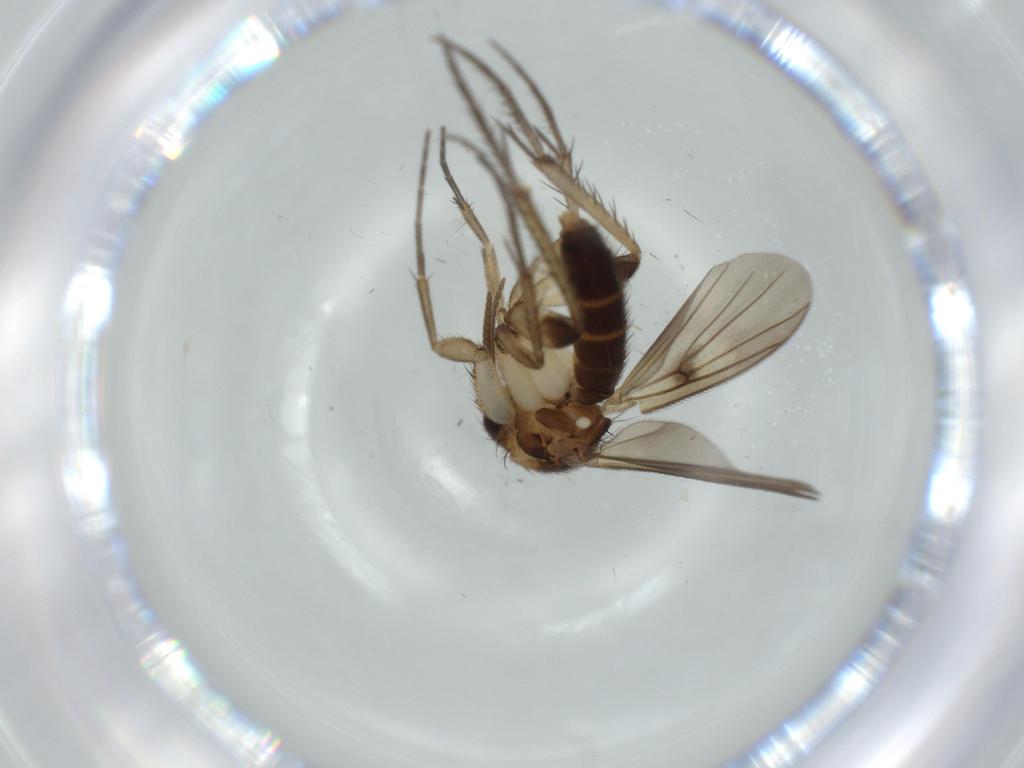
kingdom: Animalia
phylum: Arthropoda
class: Insecta
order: Diptera
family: Mycetophilidae
